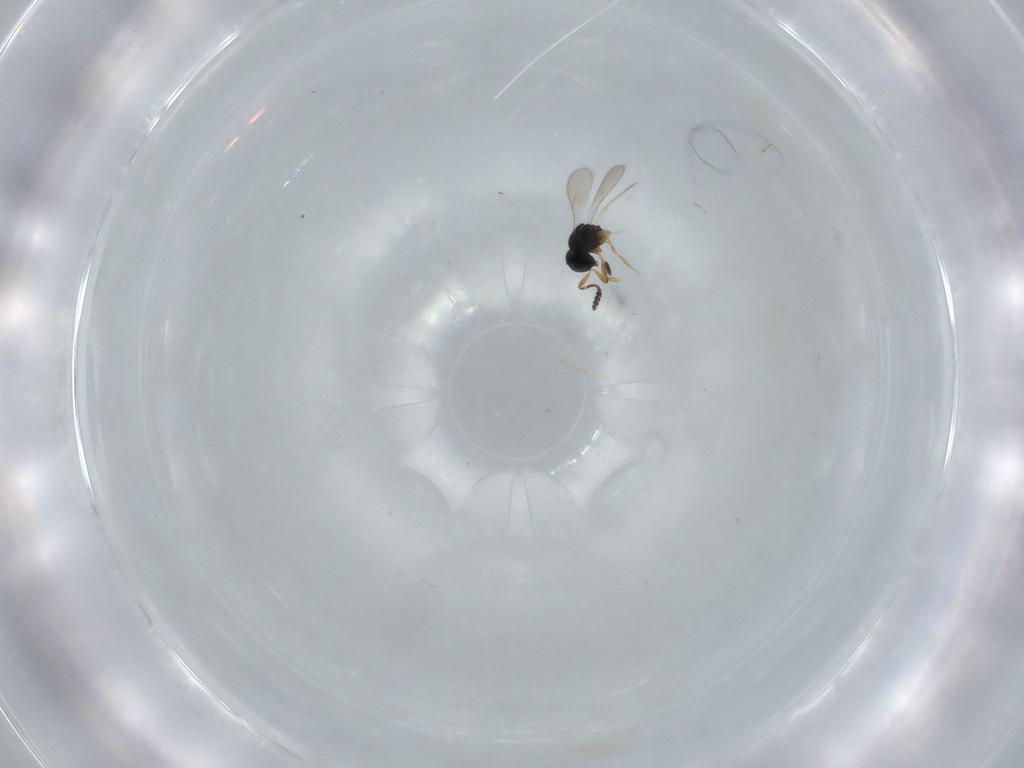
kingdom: Animalia
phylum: Arthropoda
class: Insecta
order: Hymenoptera
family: Scelionidae
